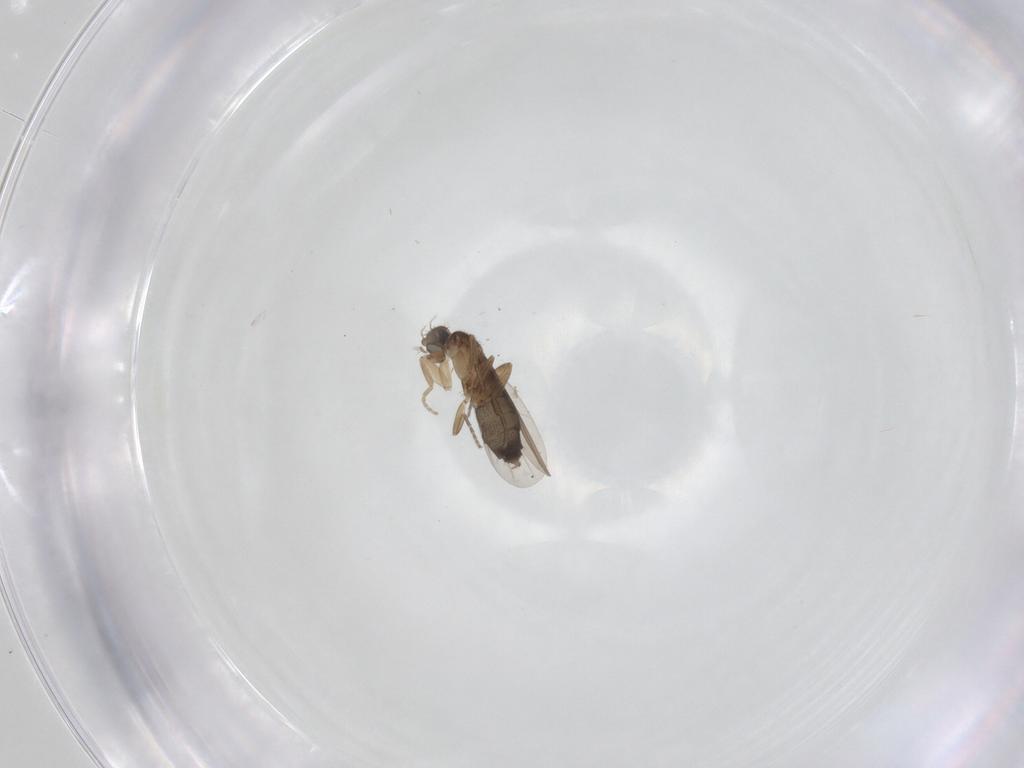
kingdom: Animalia
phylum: Arthropoda
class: Insecta
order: Diptera
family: Phoridae
